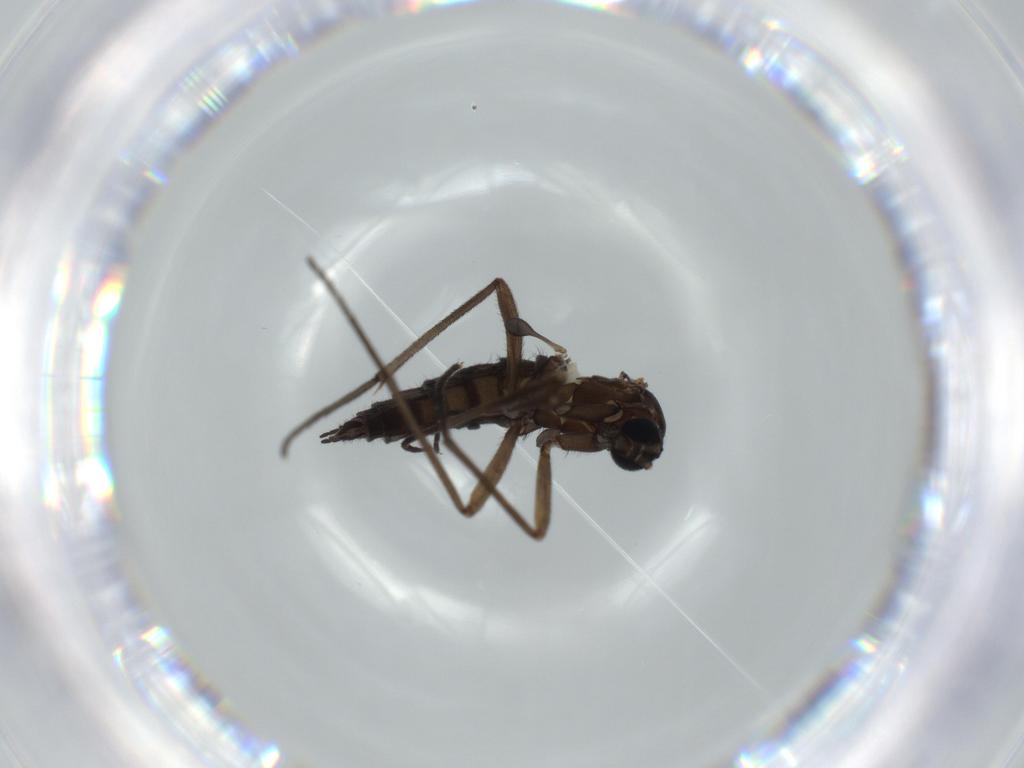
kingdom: Animalia
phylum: Arthropoda
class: Insecta
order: Diptera
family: Sciaridae
